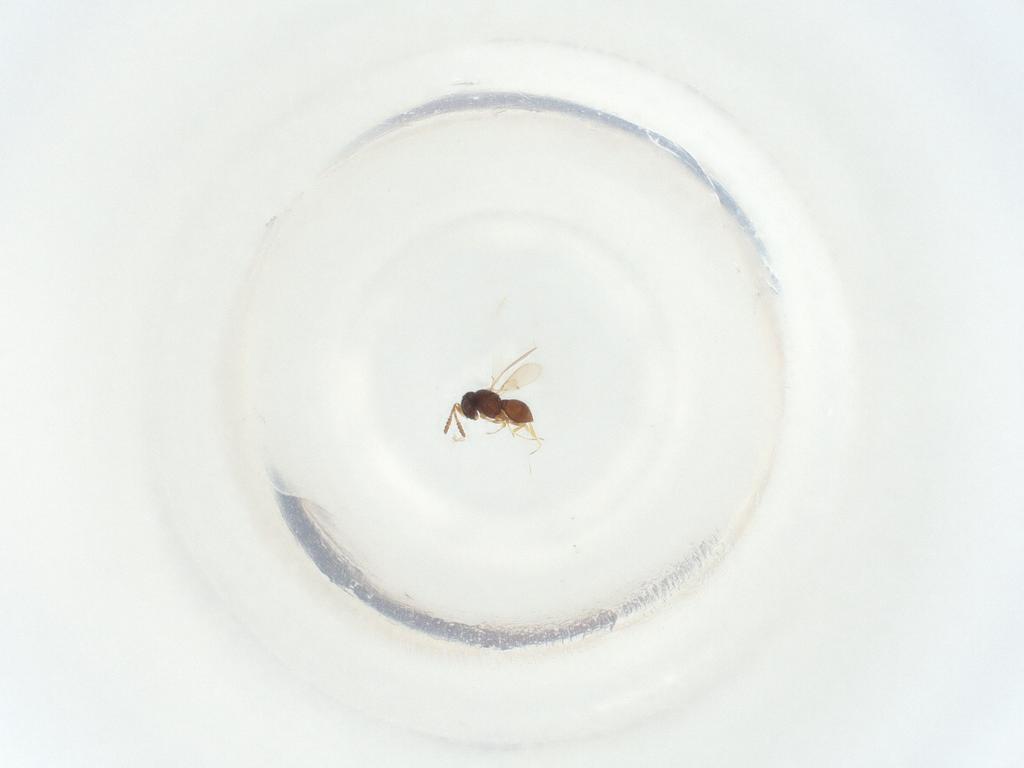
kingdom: Animalia
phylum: Arthropoda
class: Insecta
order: Hymenoptera
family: Scelionidae
